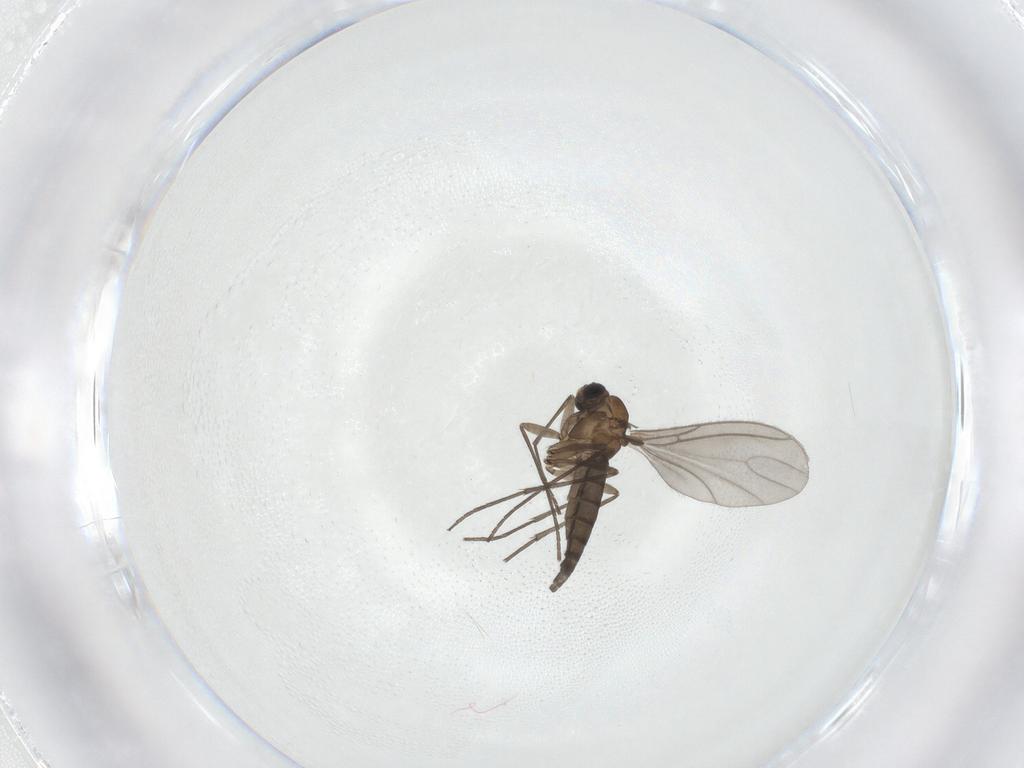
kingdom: Animalia
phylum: Arthropoda
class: Insecta
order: Diptera
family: Sciaridae
